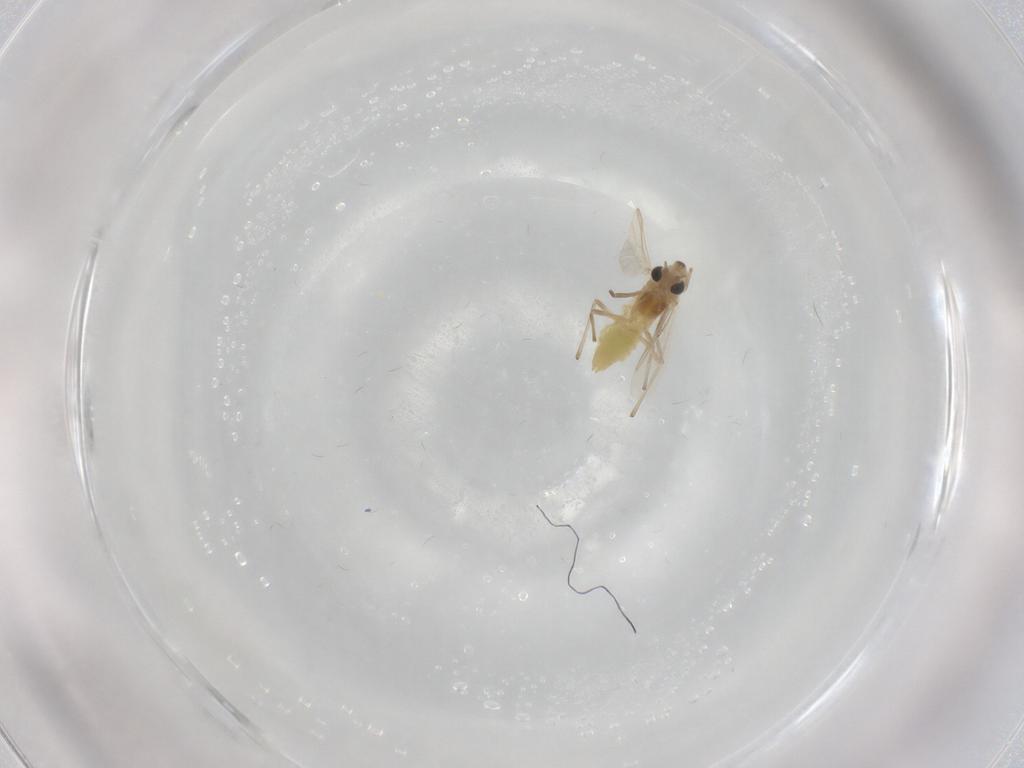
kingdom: Animalia
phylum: Arthropoda
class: Insecta
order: Diptera
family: Chironomidae
